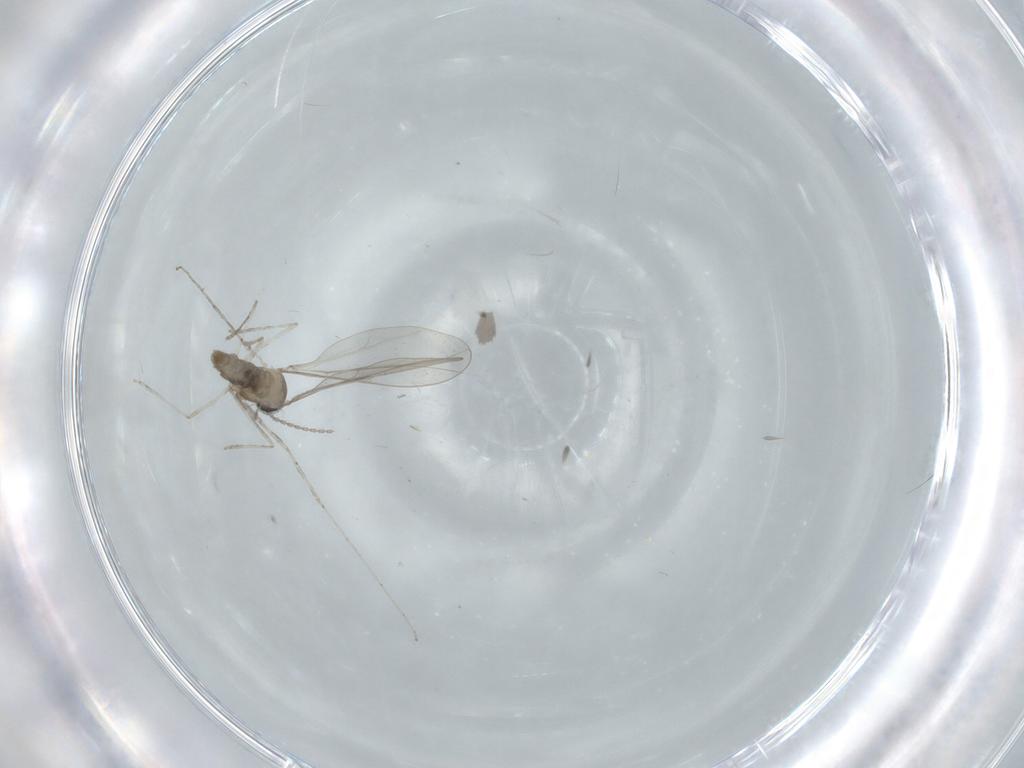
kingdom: Animalia
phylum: Arthropoda
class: Insecta
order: Diptera
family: Cecidomyiidae
